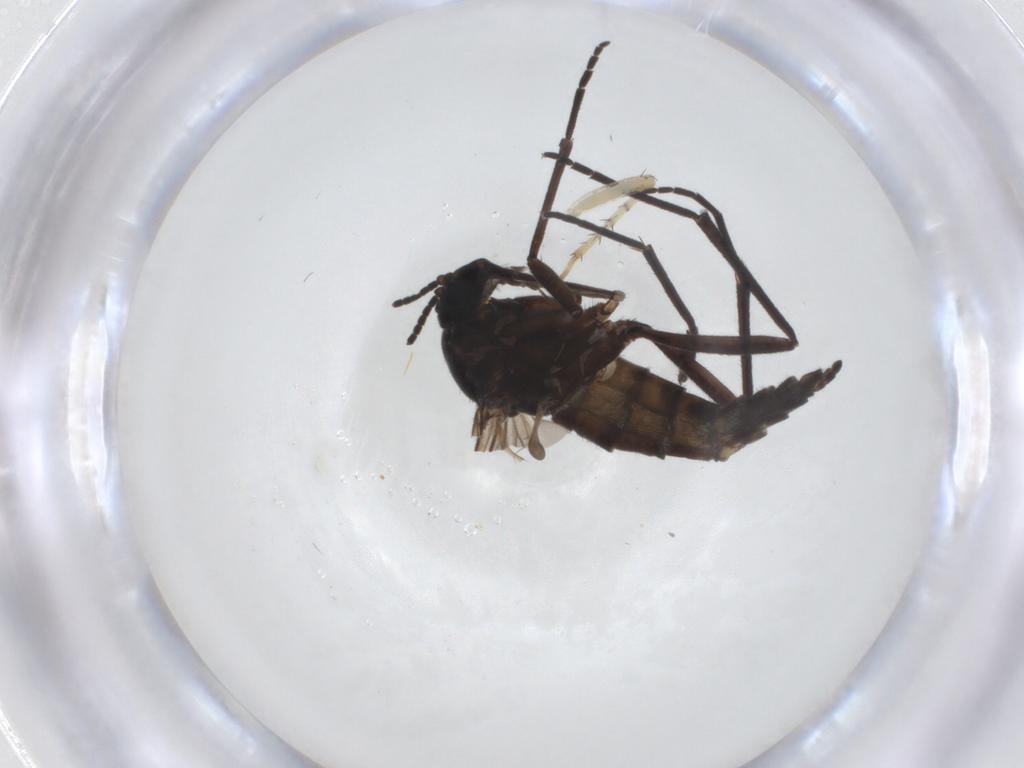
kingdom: Animalia
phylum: Arthropoda
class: Insecta
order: Diptera
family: Sciaridae
